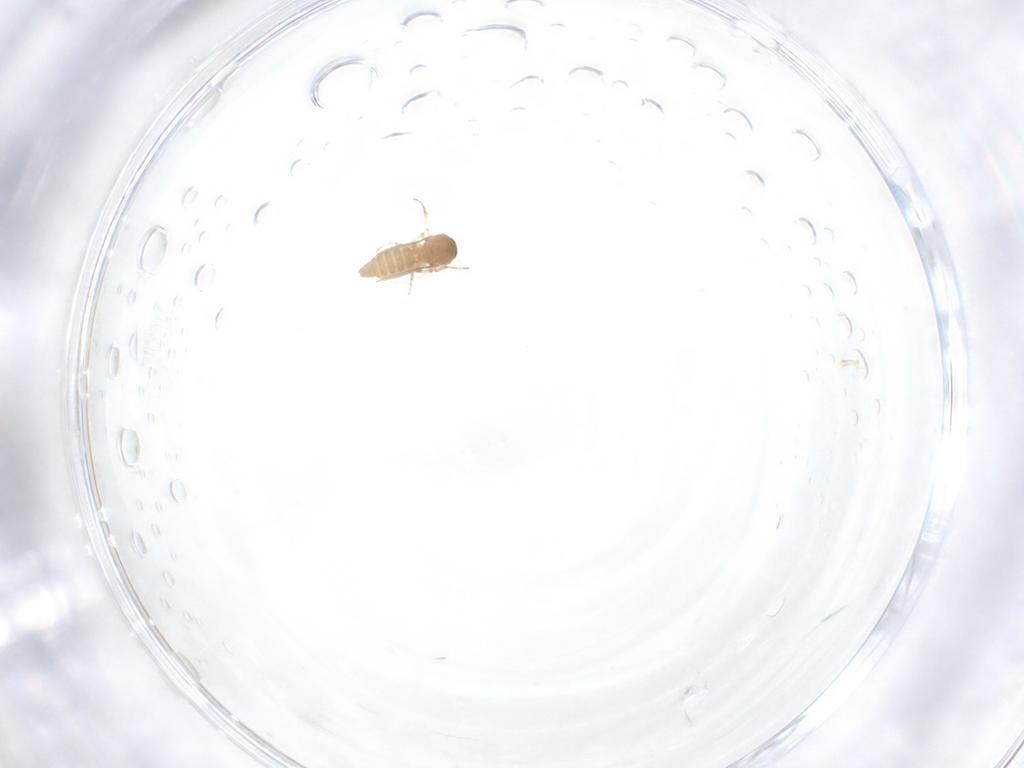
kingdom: Animalia
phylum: Arthropoda
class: Insecta
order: Diptera
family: Ceratopogonidae
